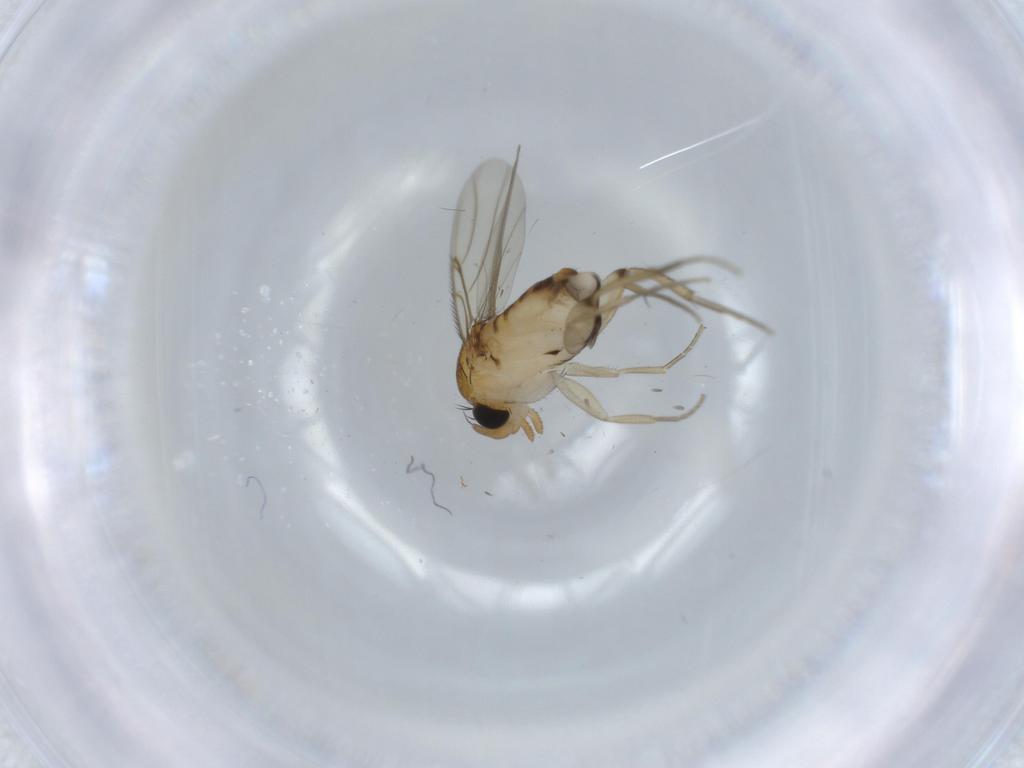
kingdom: Animalia
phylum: Arthropoda
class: Insecta
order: Diptera
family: Phoridae
